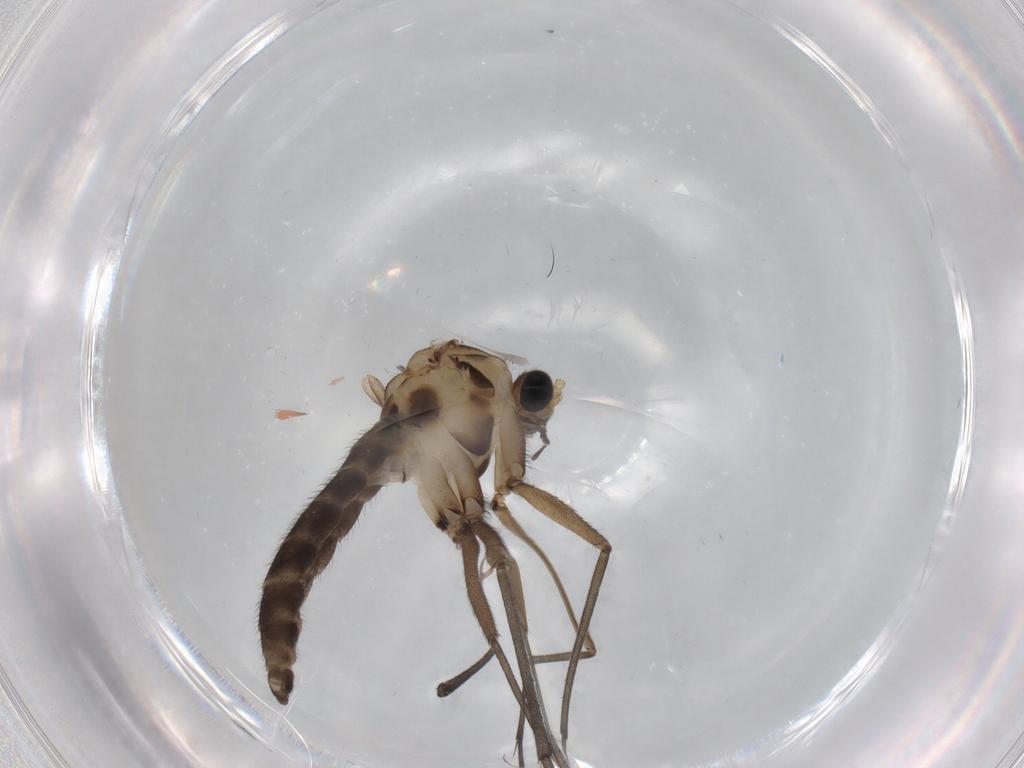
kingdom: Animalia
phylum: Arthropoda
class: Insecta
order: Diptera
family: Sciaridae
